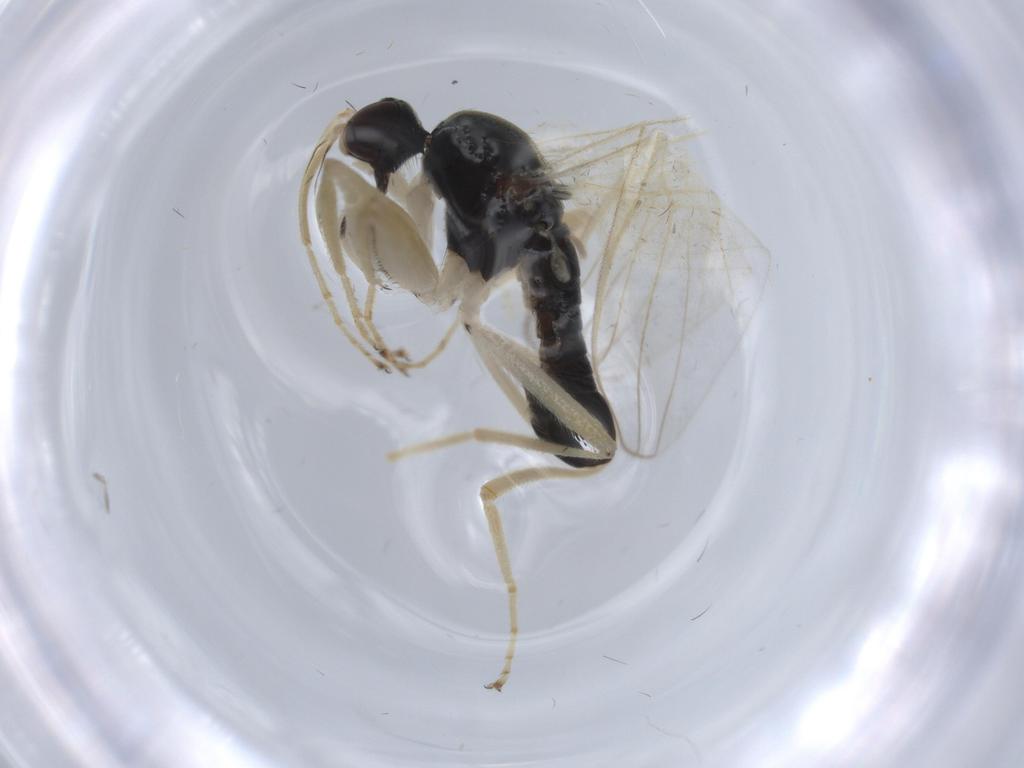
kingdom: Animalia
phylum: Arthropoda
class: Insecta
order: Diptera
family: Hybotidae
